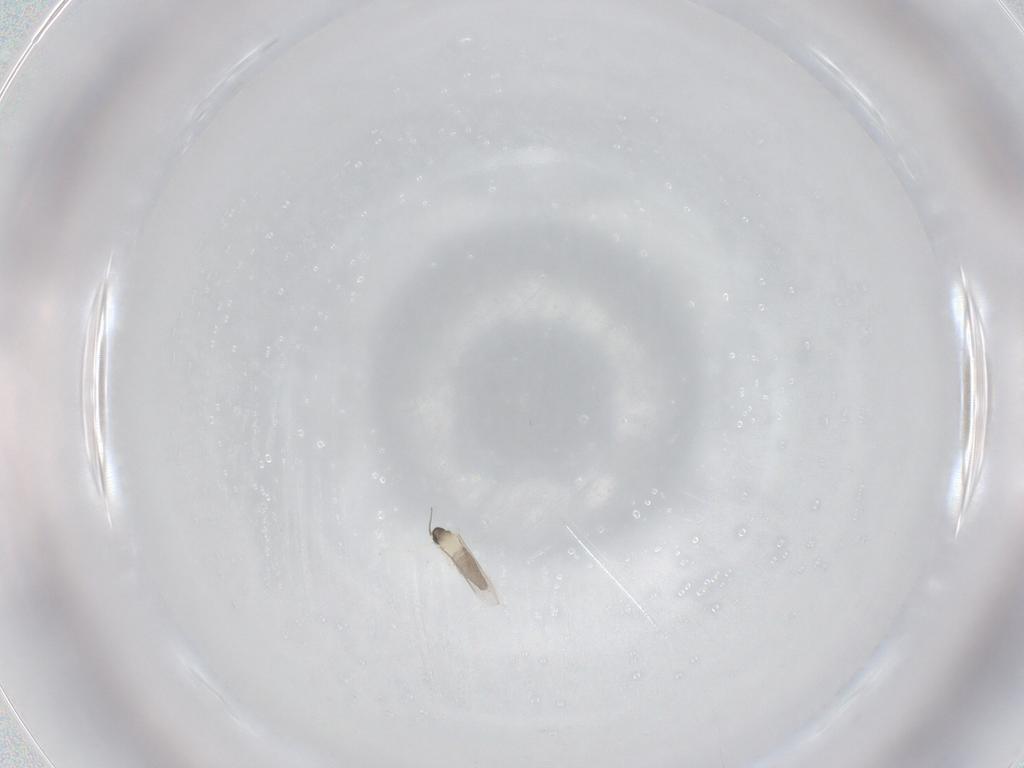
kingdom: Animalia
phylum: Arthropoda
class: Insecta
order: Diptera
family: Cecidomyiidae
